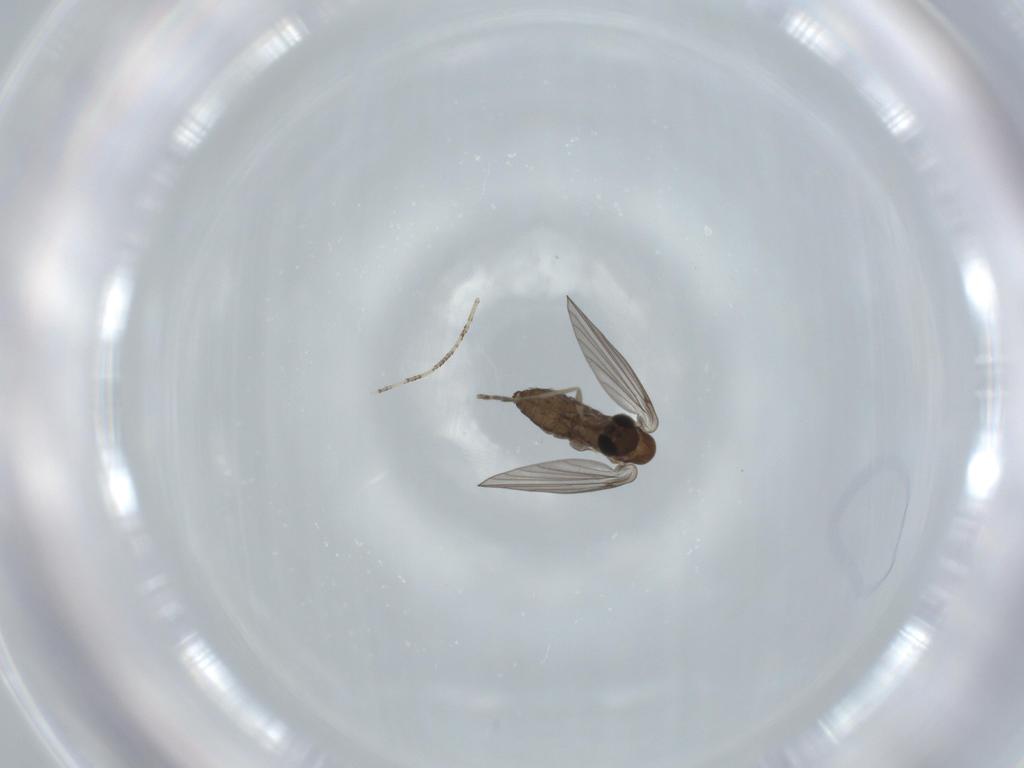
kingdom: Animalia
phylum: Arthropoda
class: Insecta
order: Diptera
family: Psychodidae
